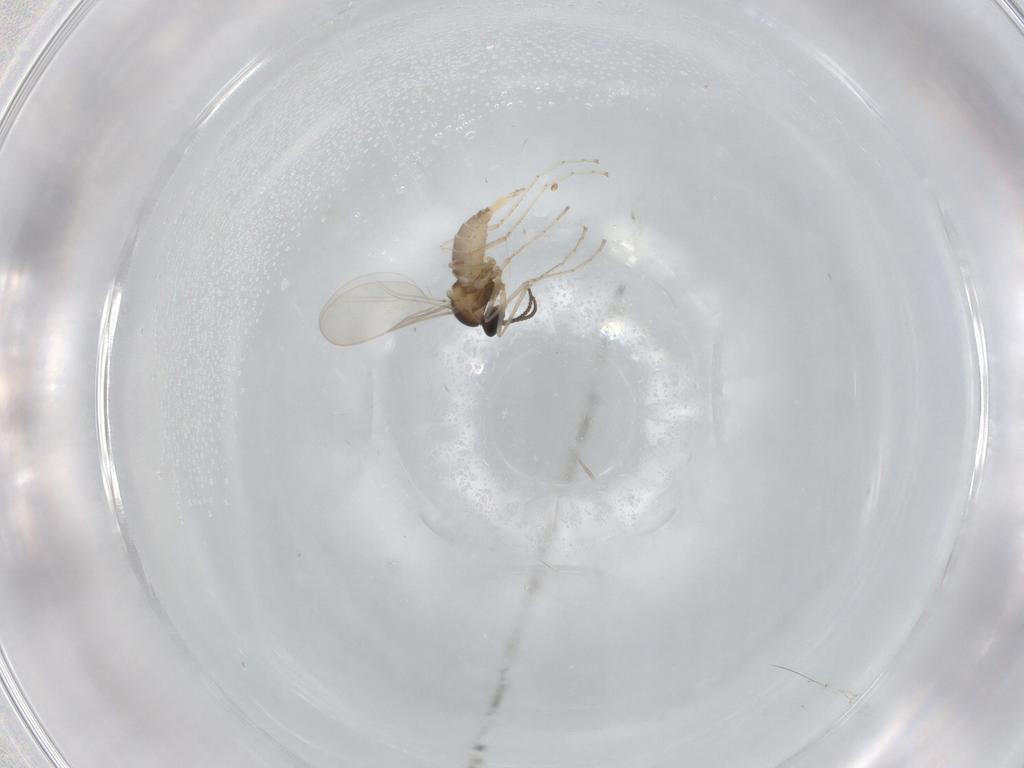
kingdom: Animalia
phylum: Arthropoda
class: Insecta
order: Diptera
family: Cecidomyiidae
